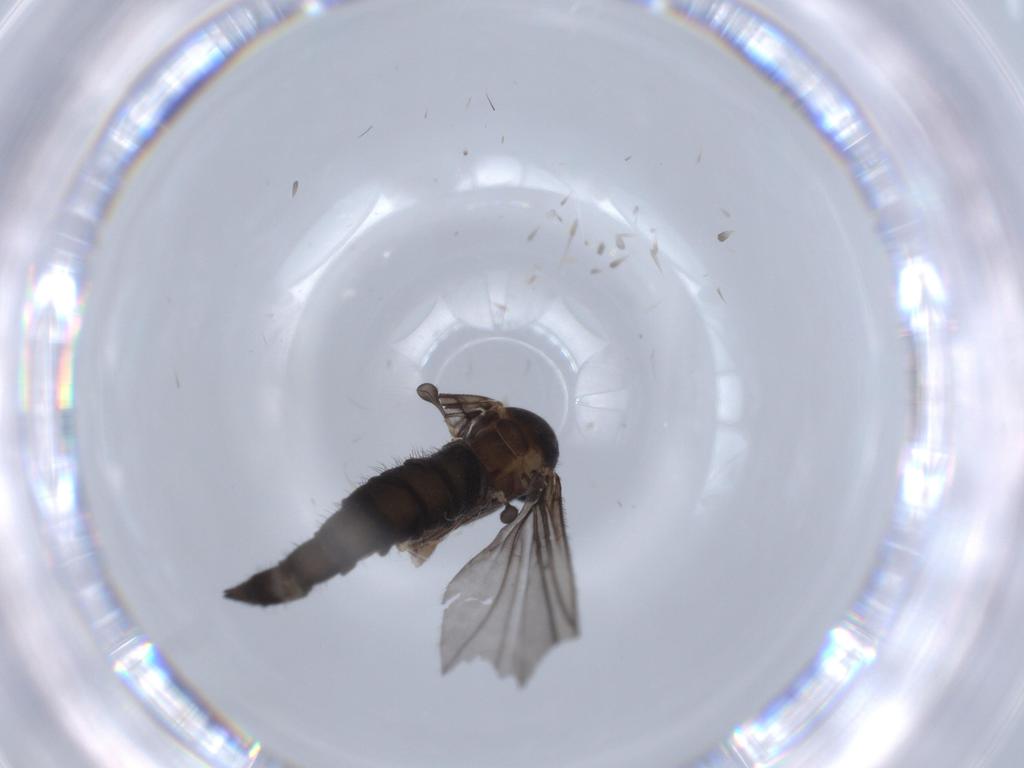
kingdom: Animalia
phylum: Arthropoda
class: Insecta
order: Diptera
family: Sciaridae
